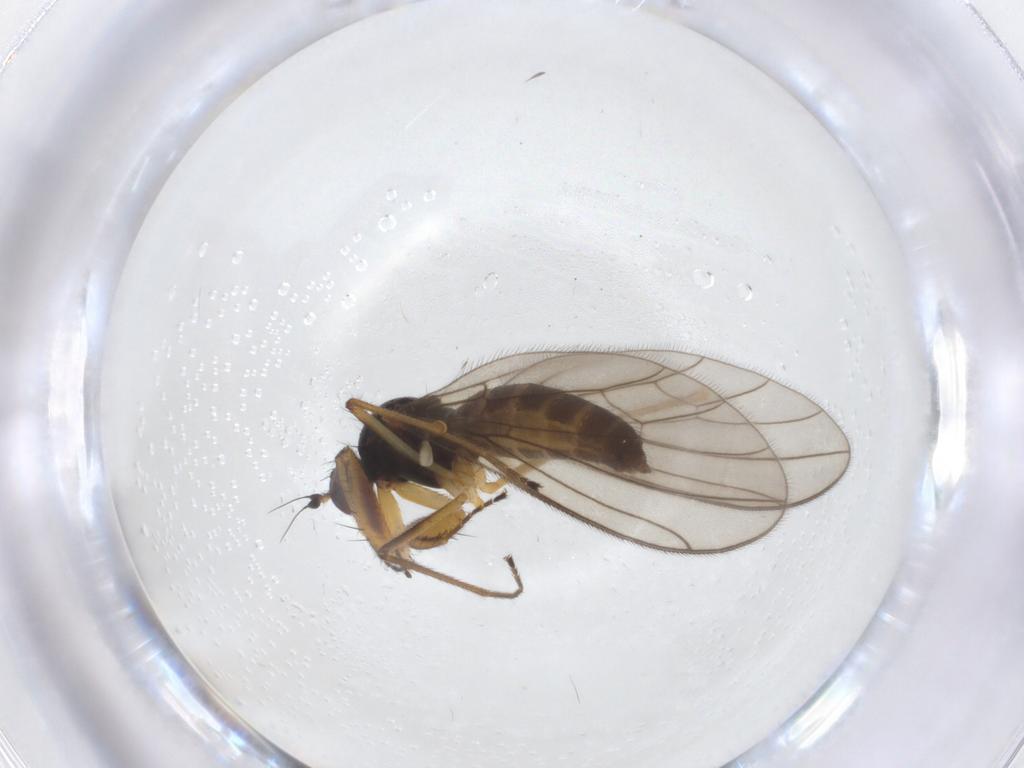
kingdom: Animalia
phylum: Arthropoda
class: Insecta
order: Diptera
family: Empididae
